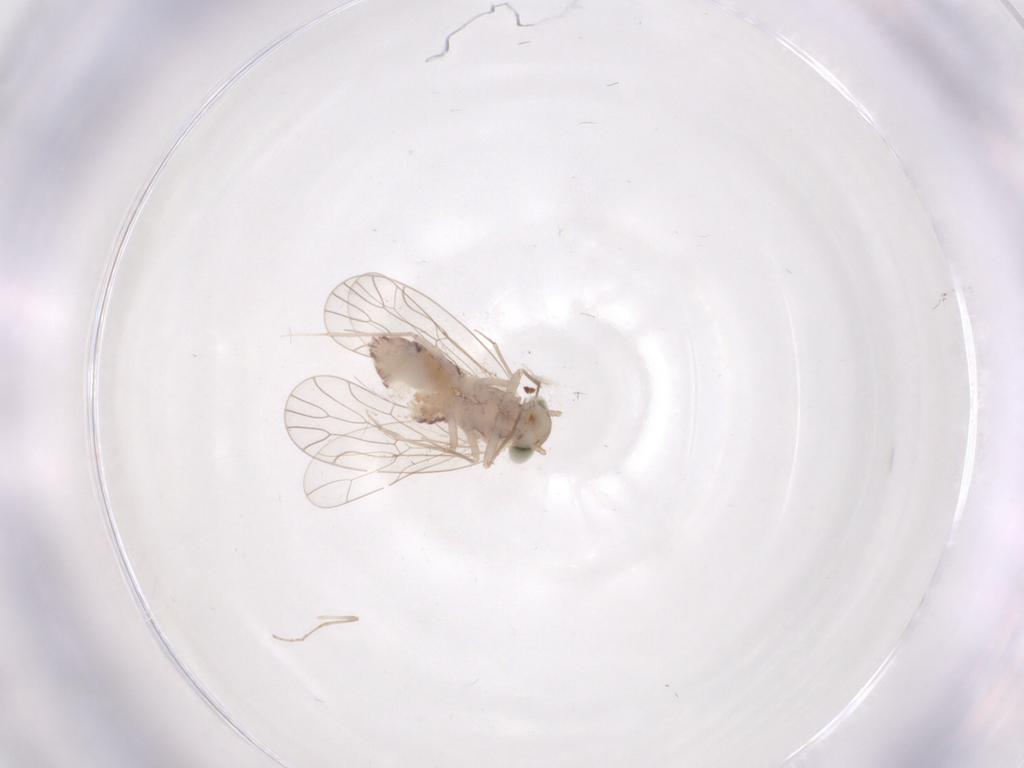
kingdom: Animalia
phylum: Arthropoda
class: Insecta
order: Psocodea
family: Amphientomidae
